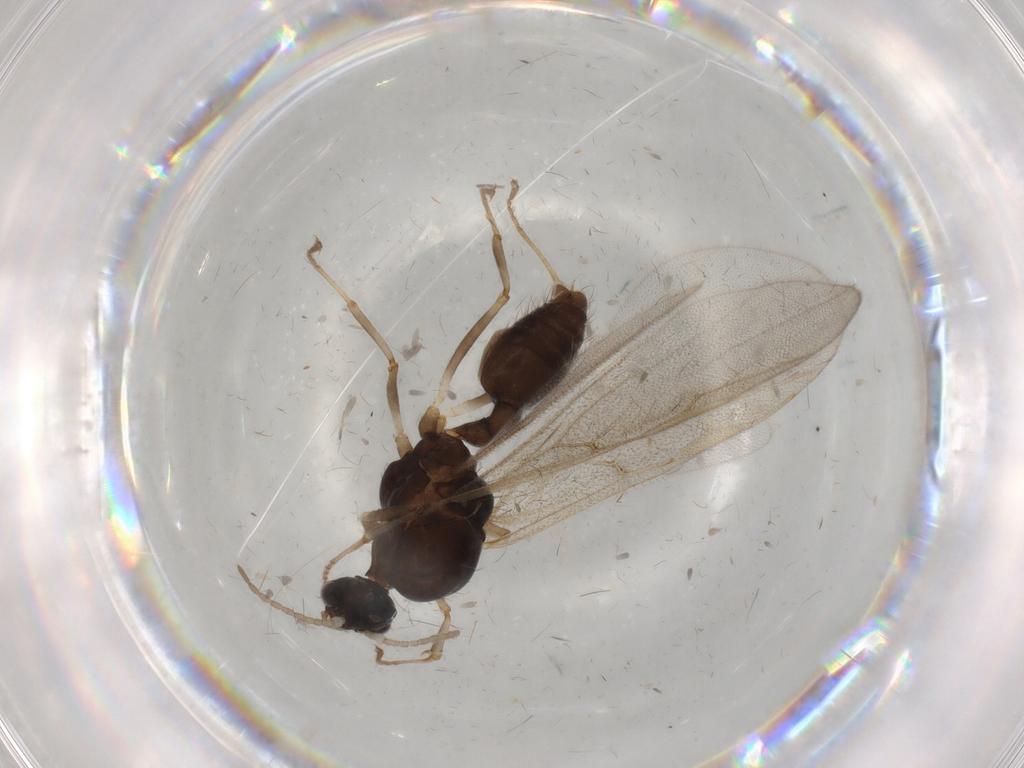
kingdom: Animalia
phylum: Arthropoda
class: Insecta
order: Hymenoptera
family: Formicidae
